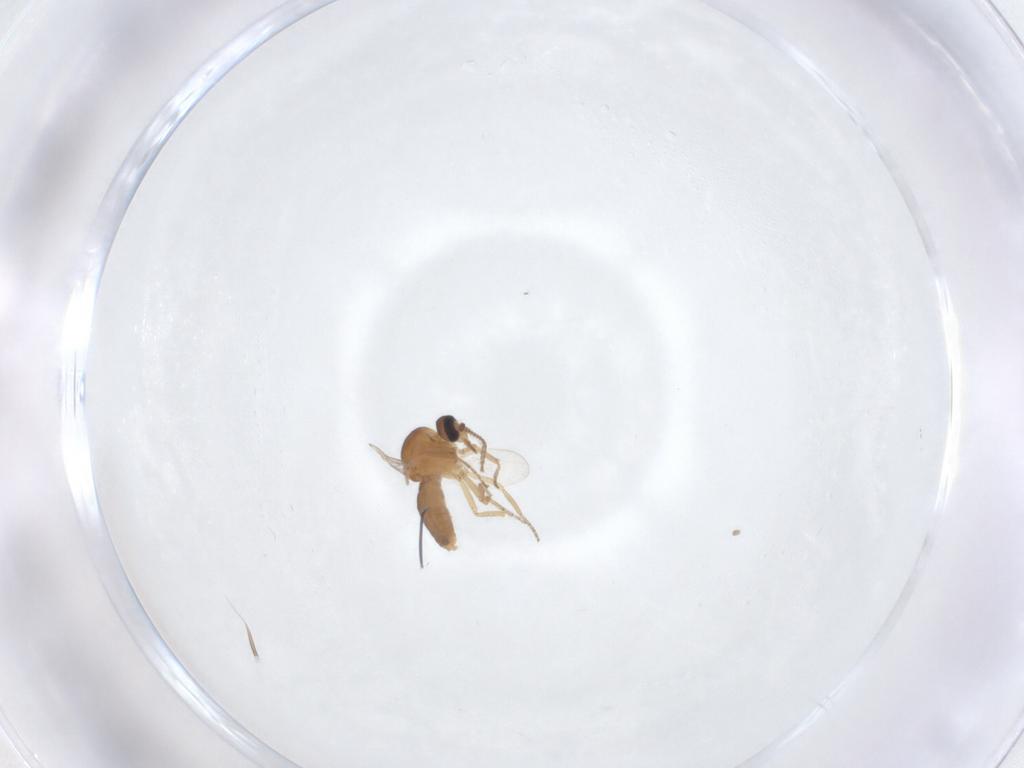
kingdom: Animalia
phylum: Arthropoda
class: Insecta
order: Diptera
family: Ceratopogonidae
